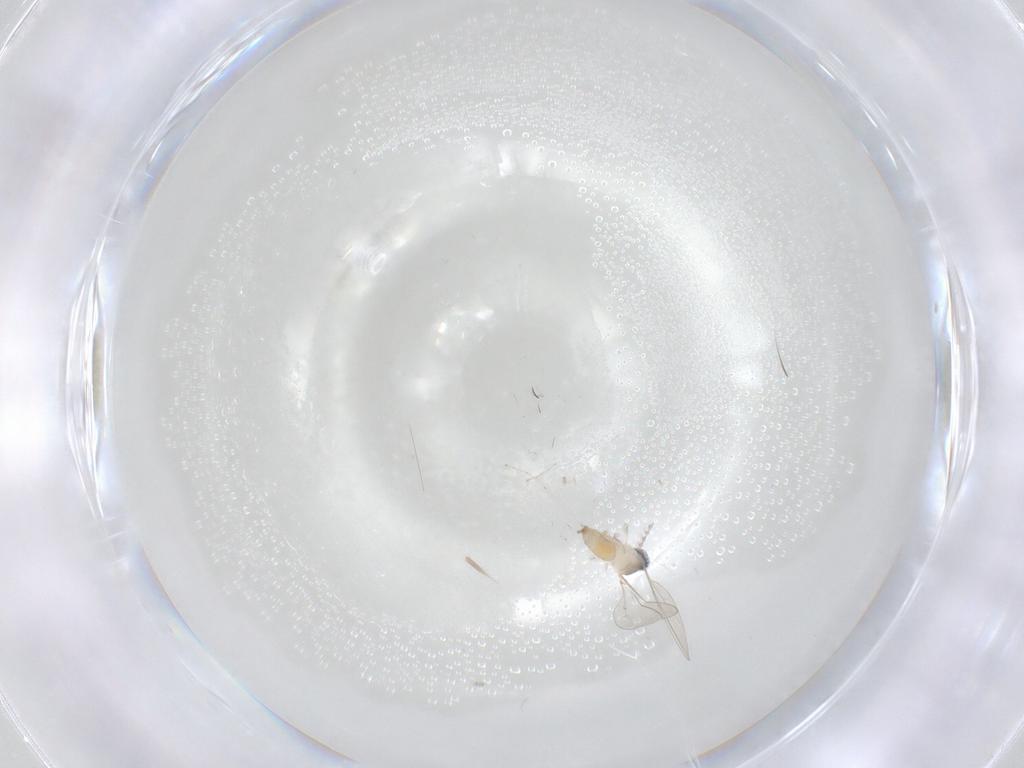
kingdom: Animalia
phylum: Arthropoda
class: Insecta
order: Diptera
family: Cecidomyiidae
